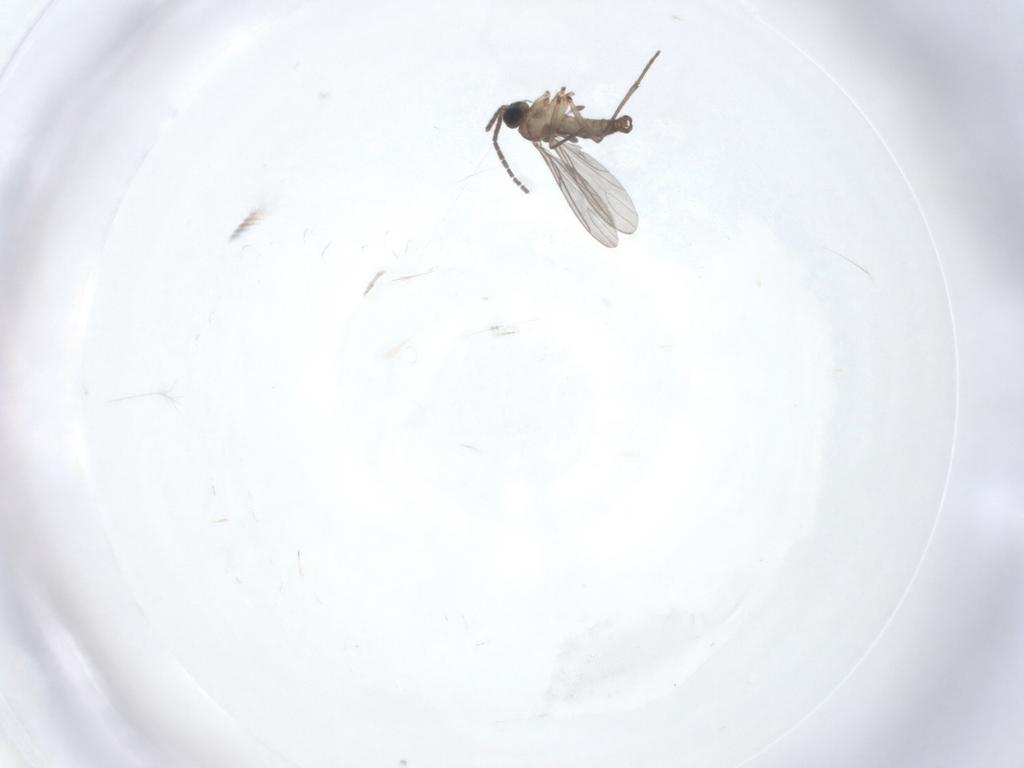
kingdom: Animalia
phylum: Arthropoda
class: Insecta
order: Diptera
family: Sciaridae
